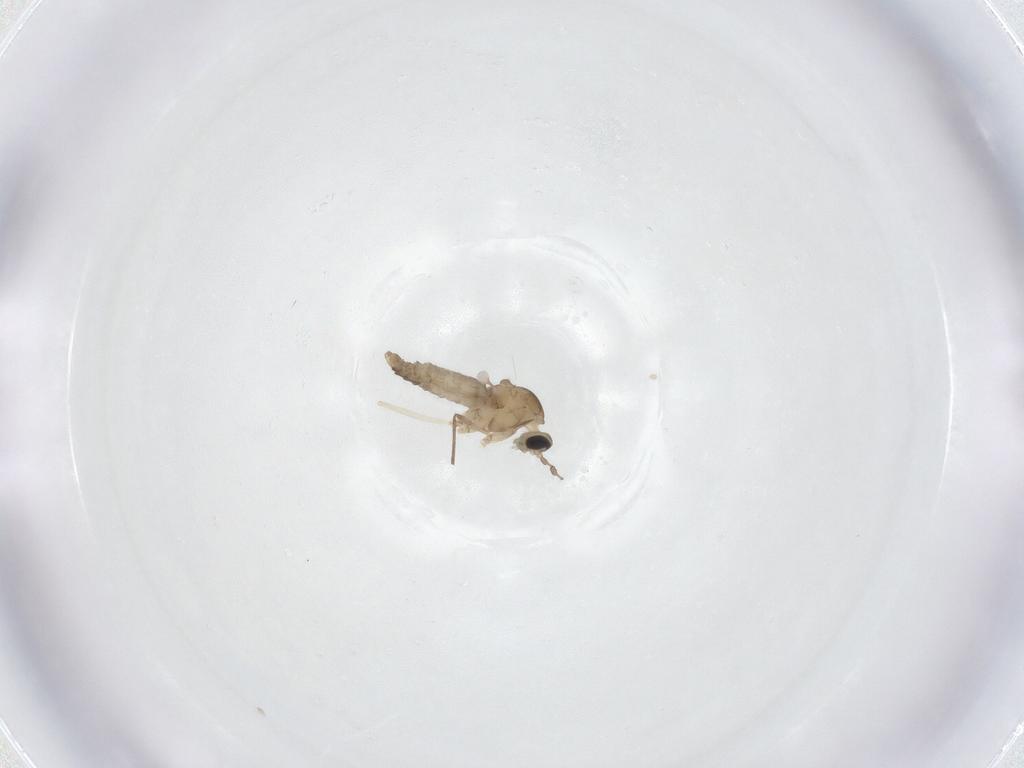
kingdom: Animalia
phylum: Arthropoda
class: Insecta
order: Diptera
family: Cecidomyiidae
